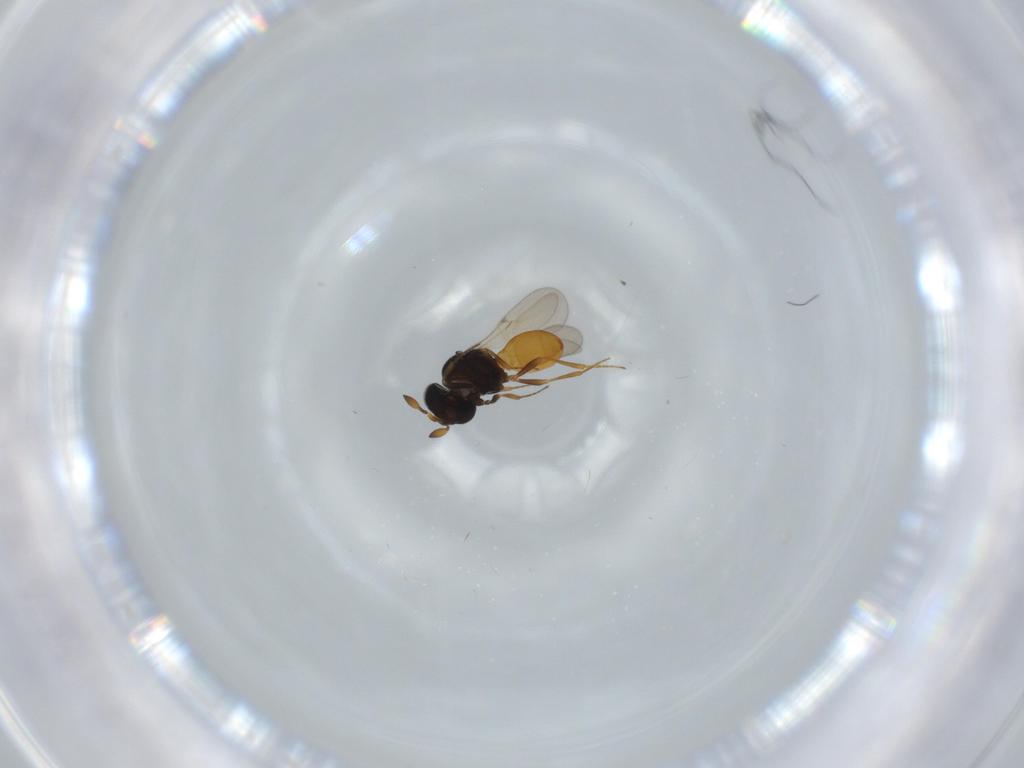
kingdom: Animalia
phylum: Arthropoda
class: Insecta
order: Hymenoptera
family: Scelionidae
